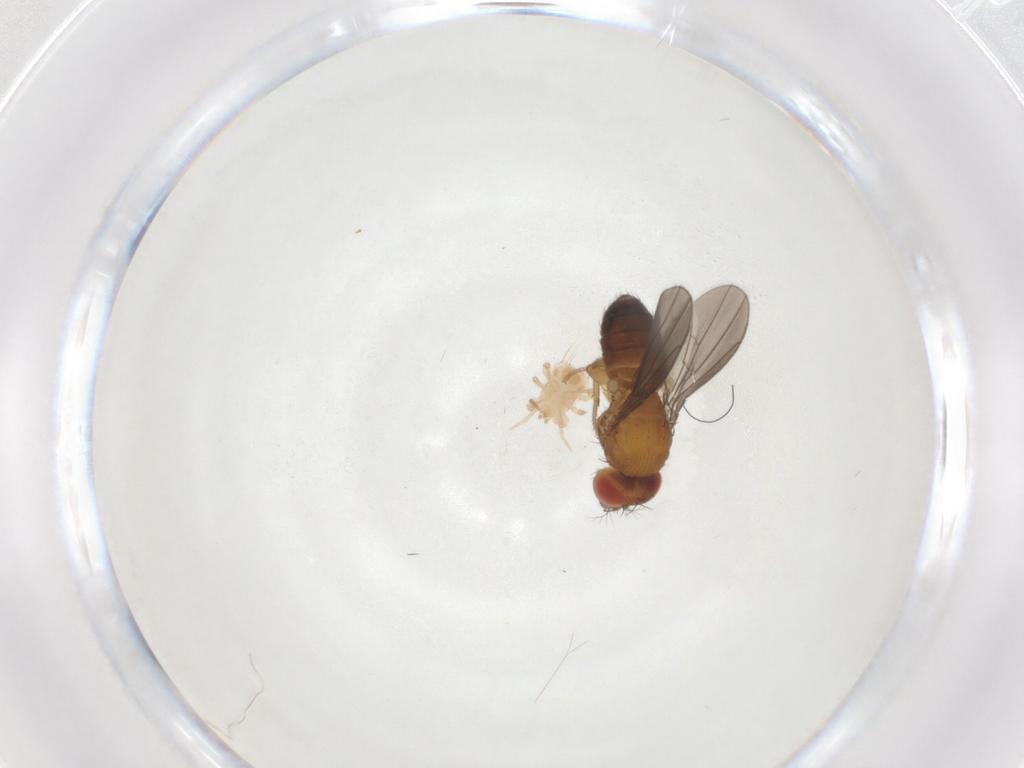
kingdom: Animalia
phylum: Arthropoda
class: Insecta
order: Diptera
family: Drosophilidae
